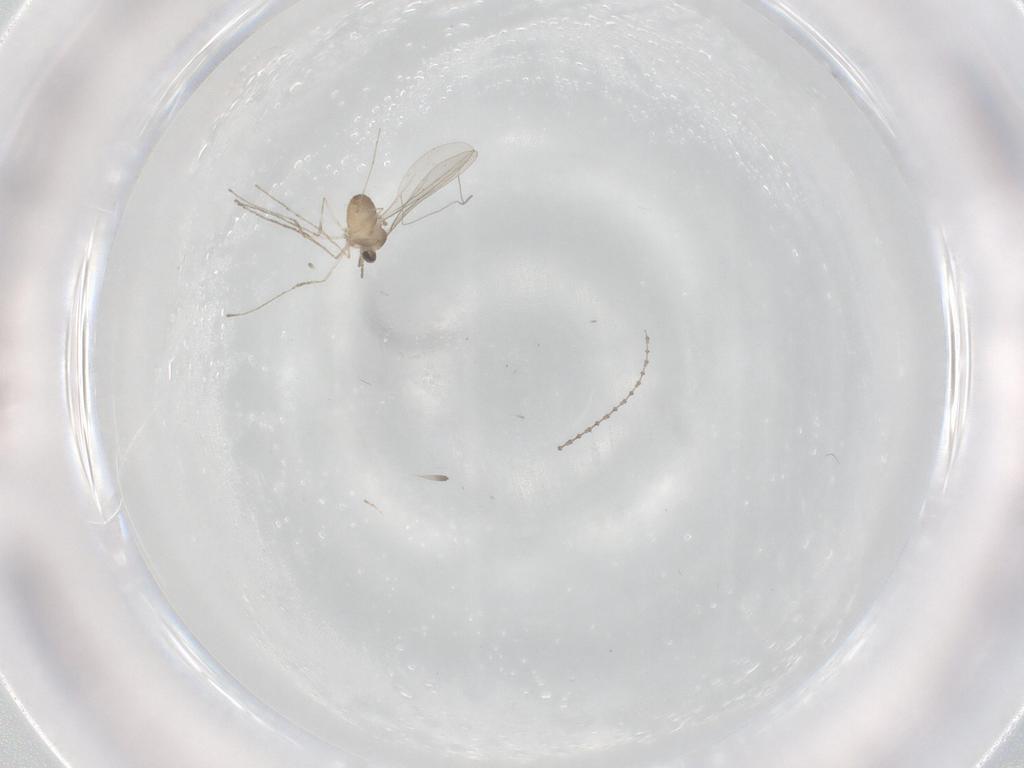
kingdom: Animalia
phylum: Arthropoda
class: Insecta
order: Diptera
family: Cecidomyiidae
